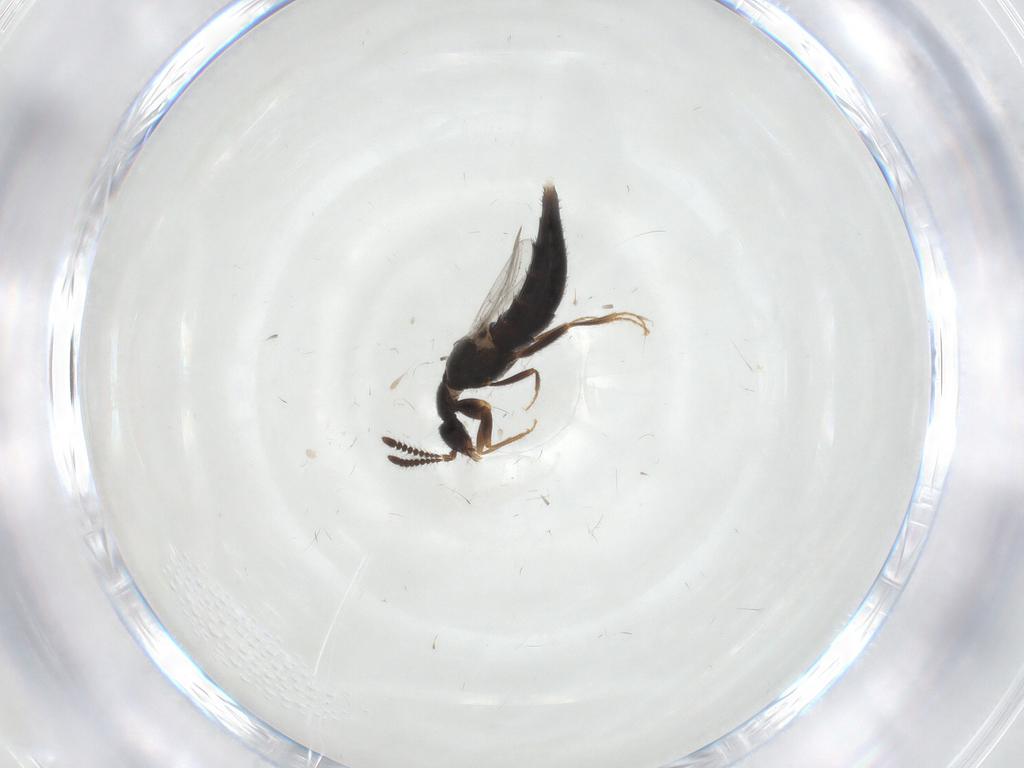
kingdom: Animalia
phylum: Arthropoda
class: Insecta
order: Coleoptera
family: Staphylinidae
